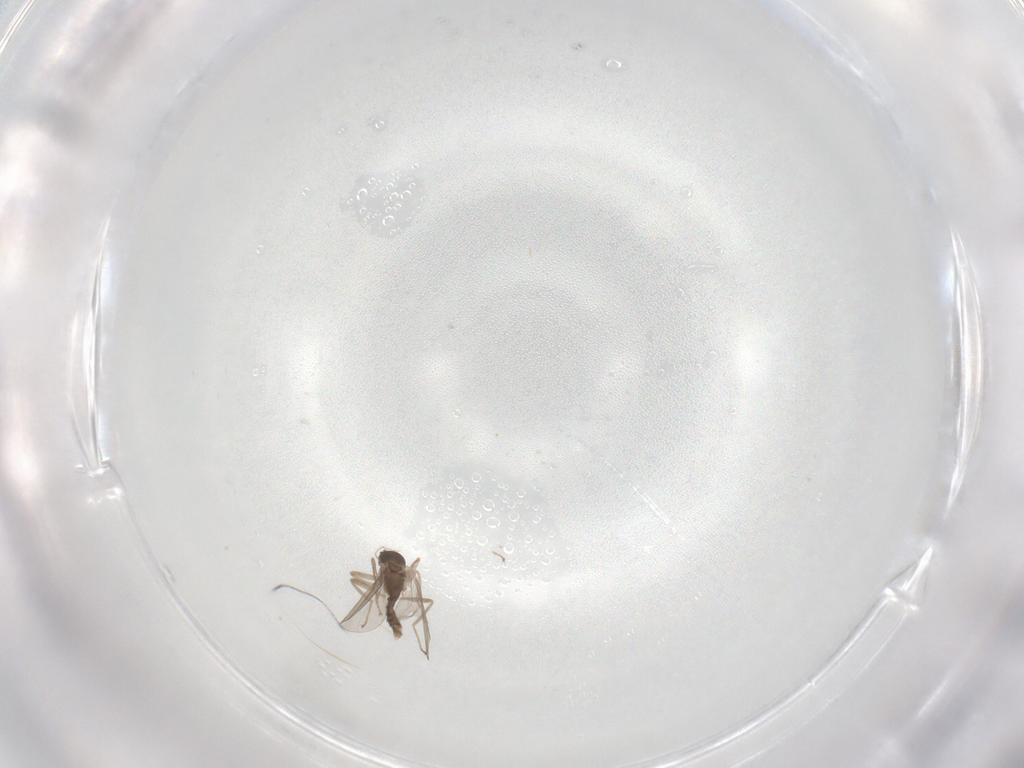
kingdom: Animalia
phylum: Arthropoda
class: Insecta
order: Diptera
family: Cecidomyiidae
